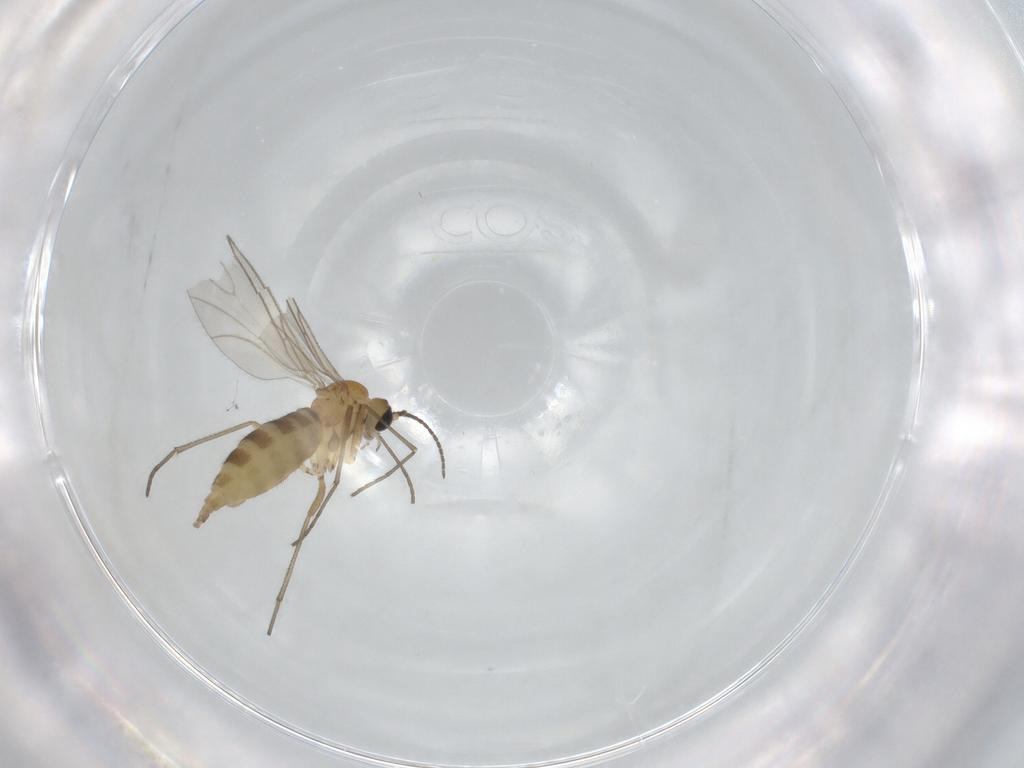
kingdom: Animalia
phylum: Arthropoda
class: Insecta
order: Diptera
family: Sciaridae
